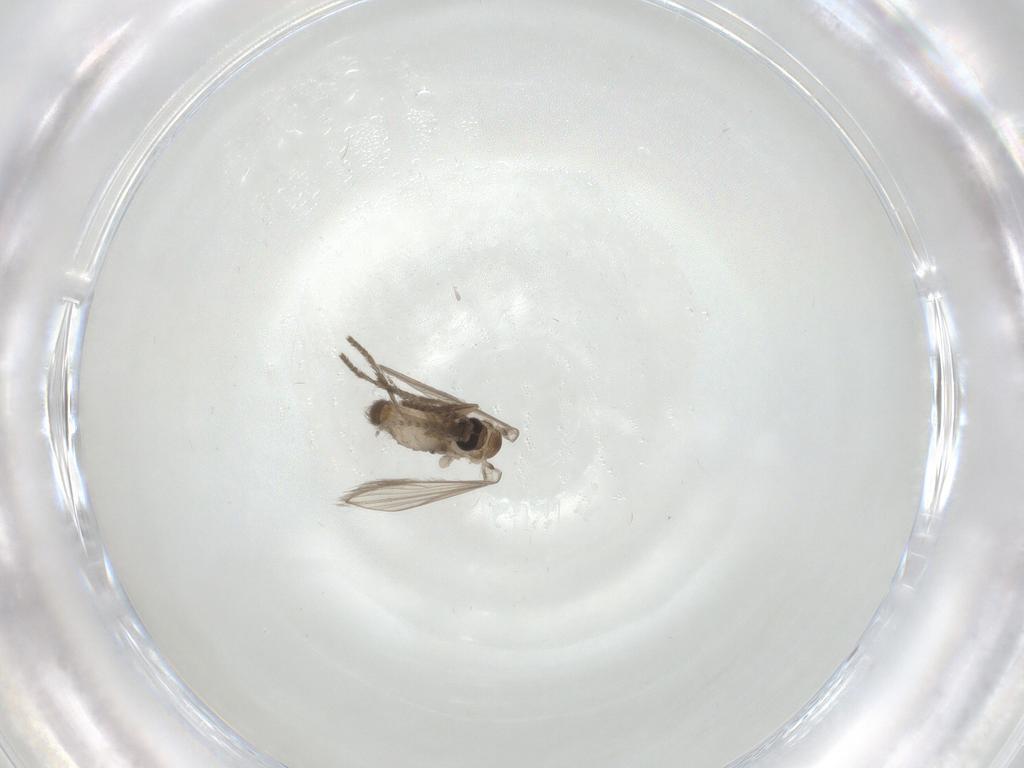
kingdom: Animalia
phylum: Arthropoda
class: Insecta
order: Diptera
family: Psychodidae
